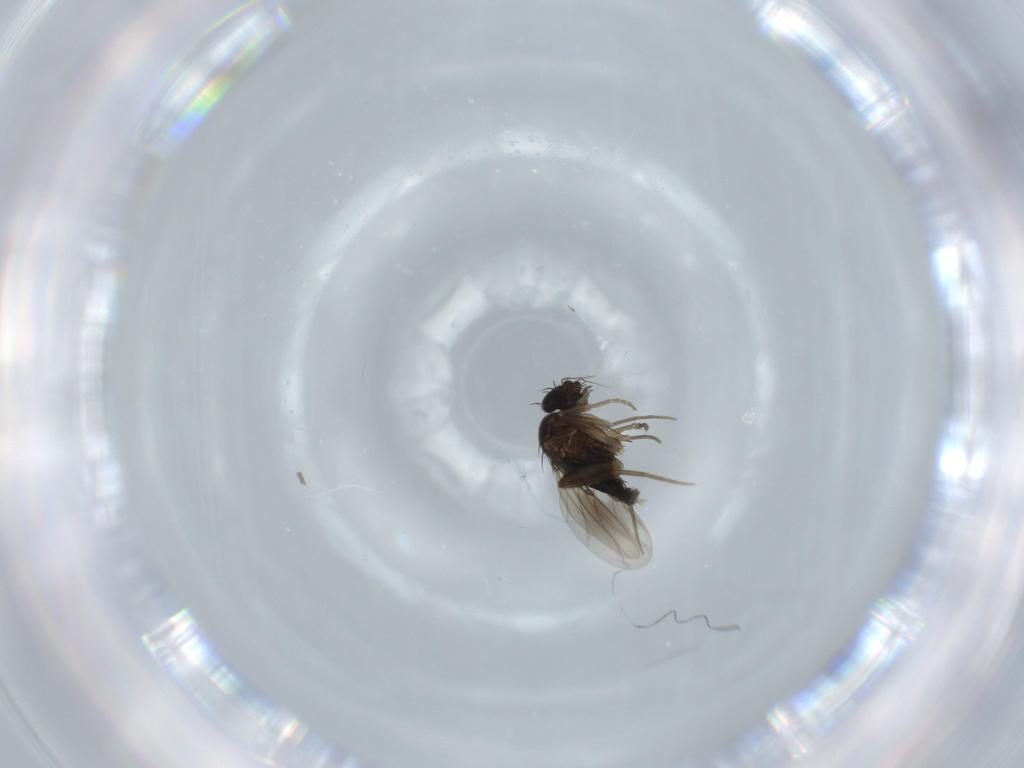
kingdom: Animalia
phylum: Arthropoda
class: Insecta
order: Diptera
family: Phoridae
